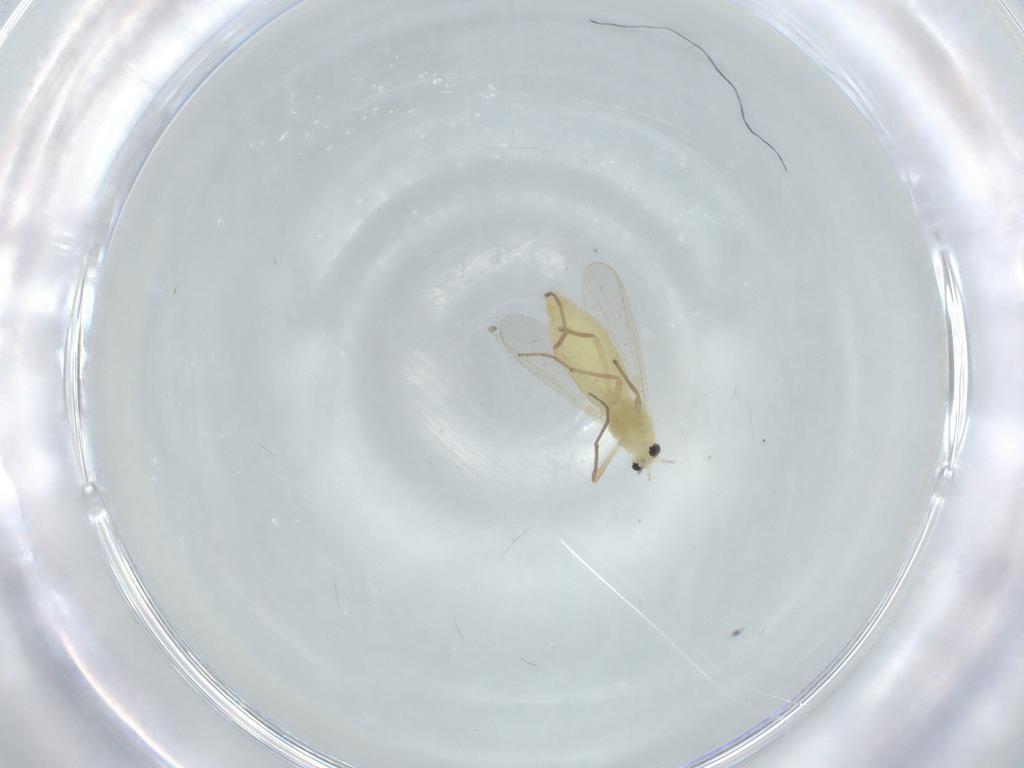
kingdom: Animalia
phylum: Arthropoda
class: Insecta
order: Diptera
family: Chironomidae
